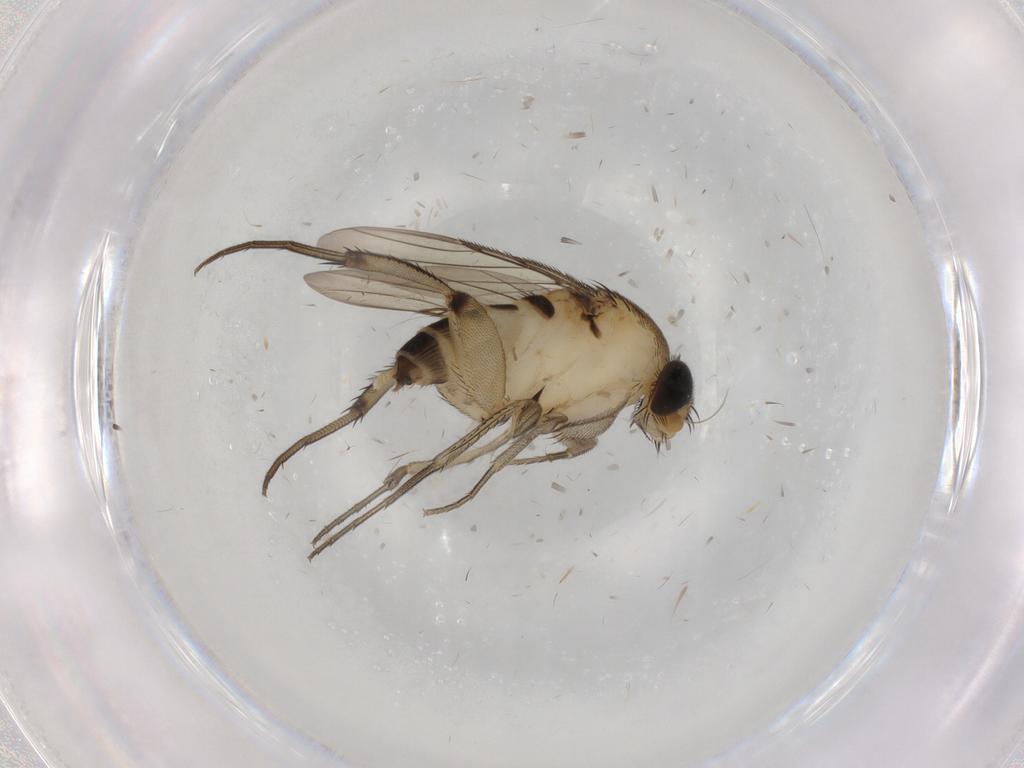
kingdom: Animalia
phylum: Arthropoda
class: Insecta
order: Diptera
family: Phoridae
